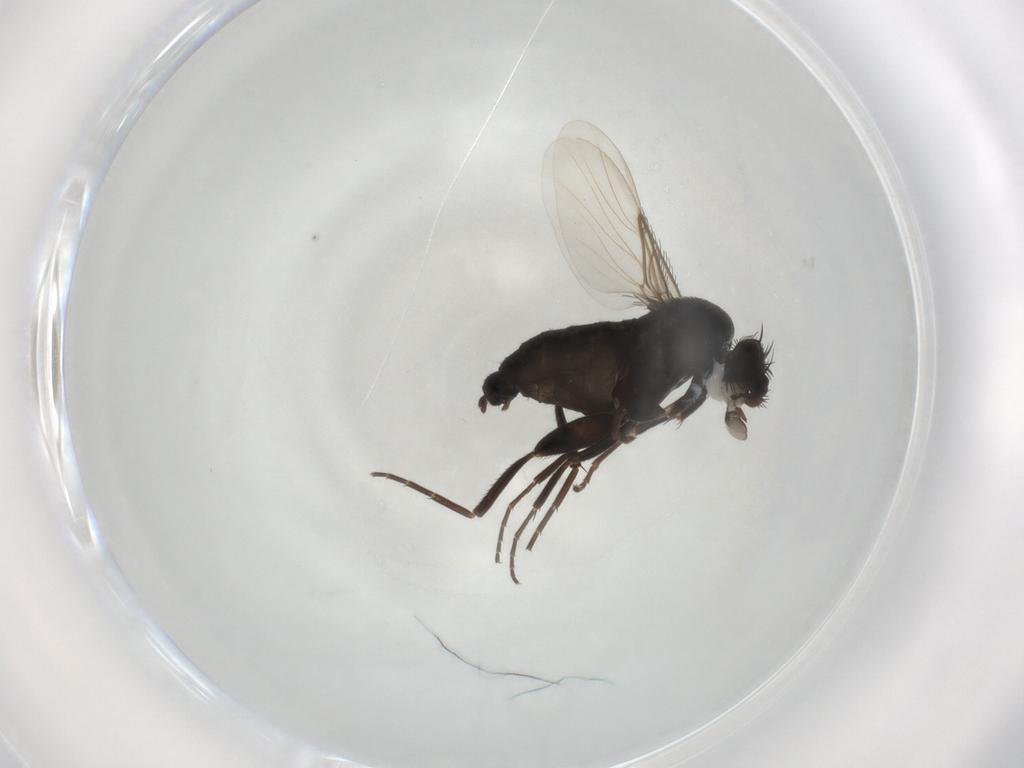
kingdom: Animalia
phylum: Arthropoda
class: Insecta
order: Diptera
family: Phoridae
